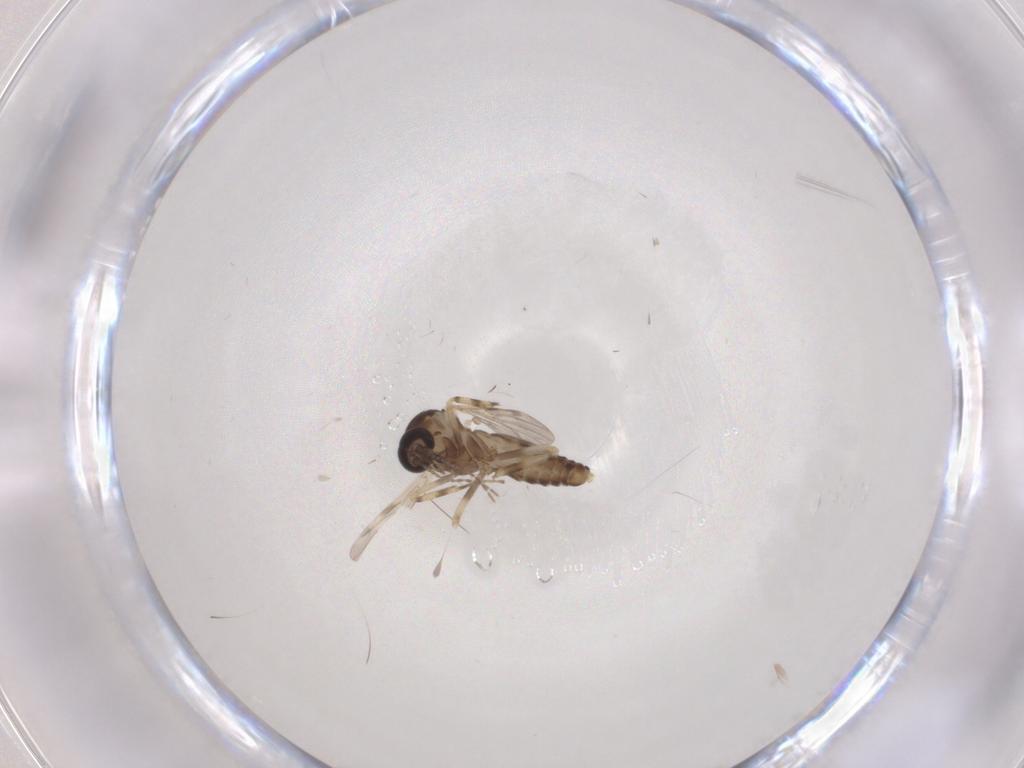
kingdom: Animalia
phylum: Arthropoda
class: Insecta
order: Diptera
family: Ceratopogonidae
